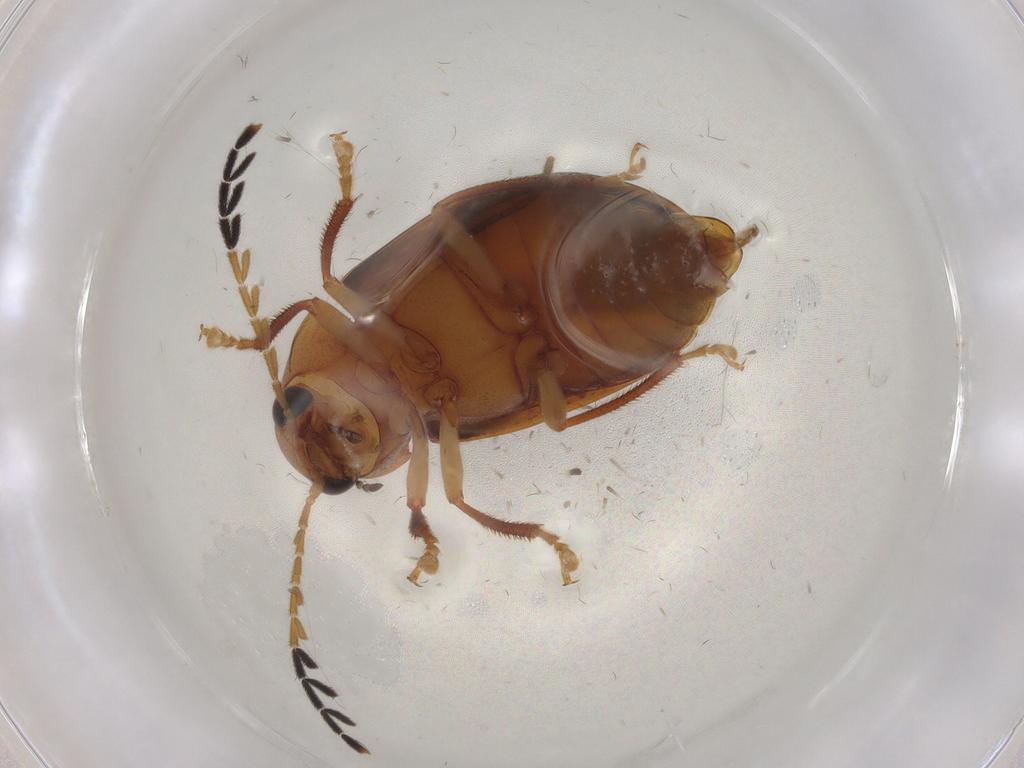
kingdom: Animalia
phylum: Arthropoda
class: Insecta
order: Coleoptera
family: Ptilodactylidae
